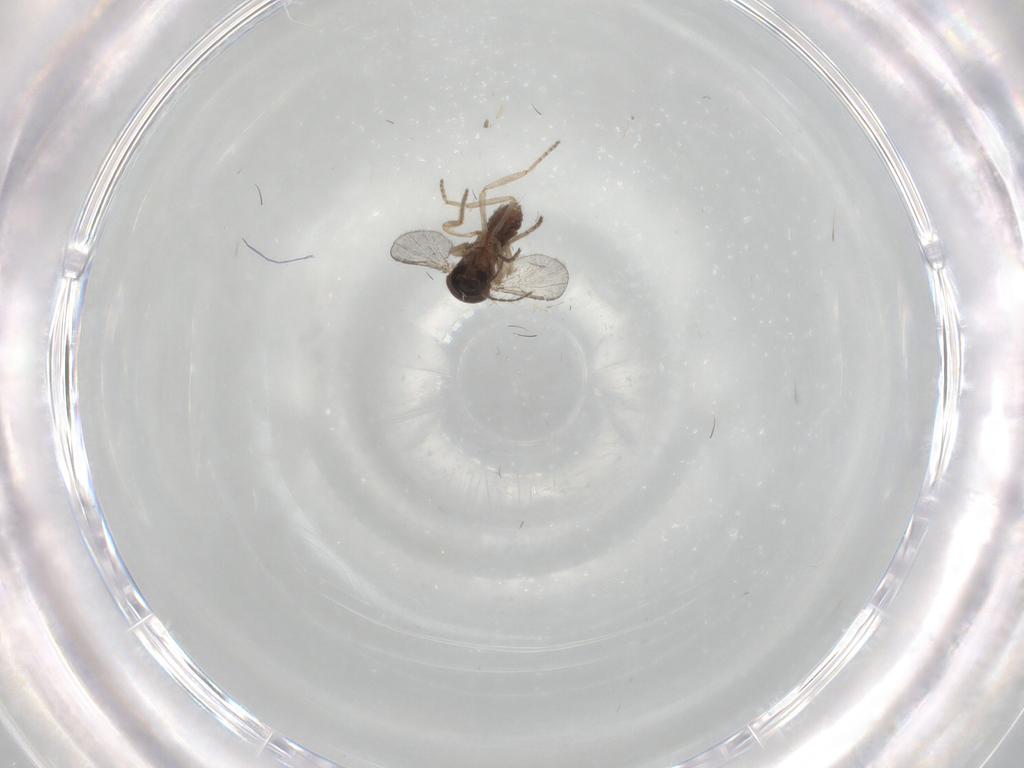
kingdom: Animalia
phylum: Arthropoda
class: Insecta
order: Diptera
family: Ceratopogonidae
